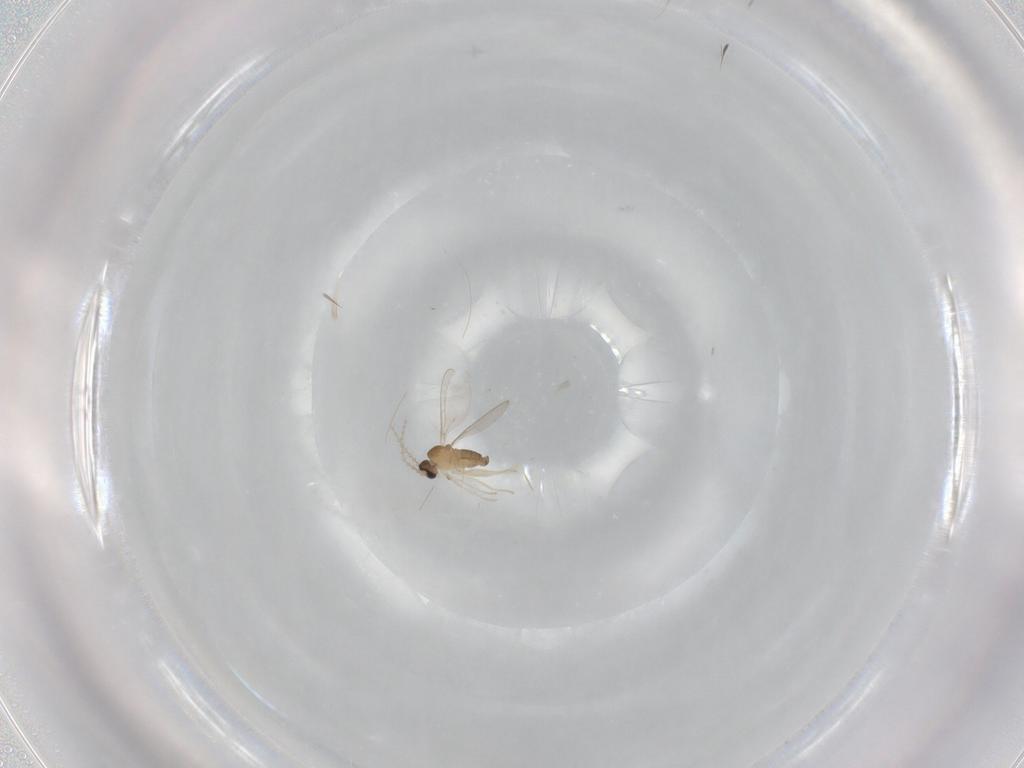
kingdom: Animalia
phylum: Arthropoda
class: Insecta
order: Diptera
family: Cecidomyiidae
